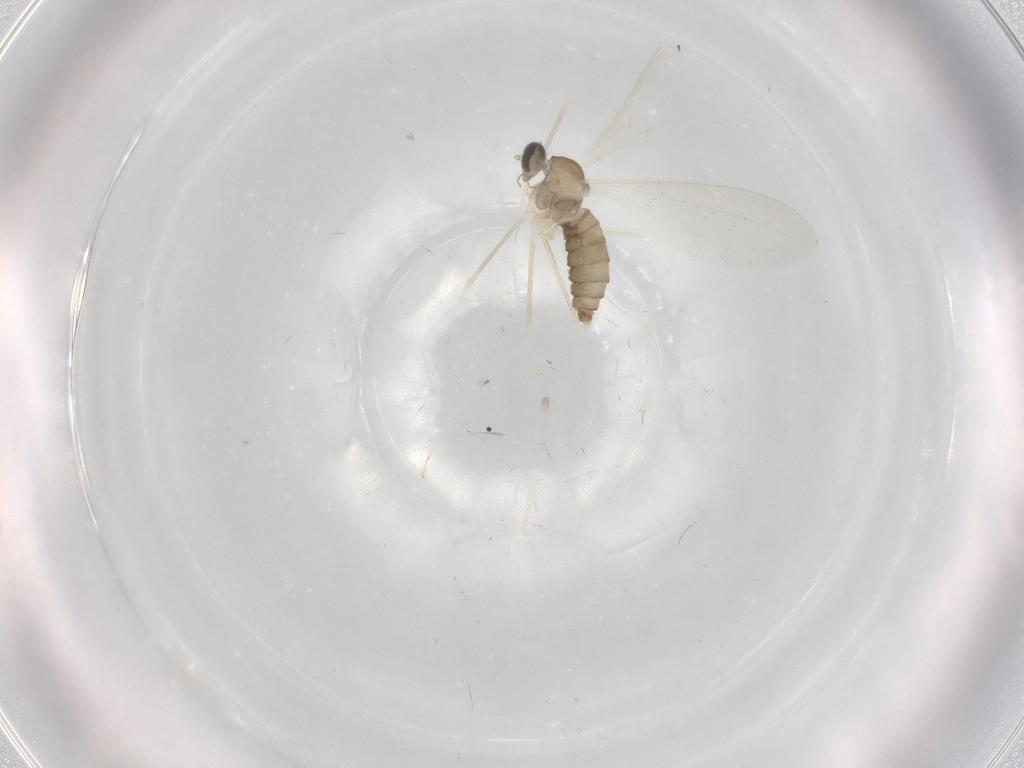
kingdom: Animalia
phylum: Arthropoda
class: Insecta
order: Diptera
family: Cecidomyiidae
